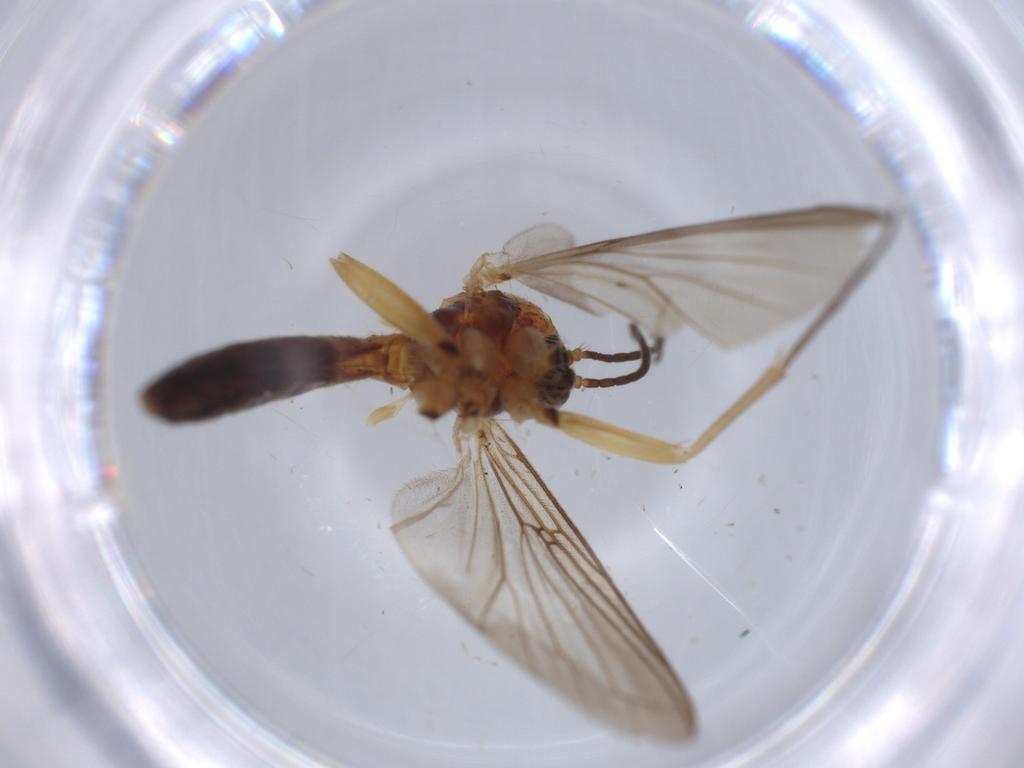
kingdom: Animalia
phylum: Arthropoda
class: Insecta
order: Diptera
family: Mycetophilidae
